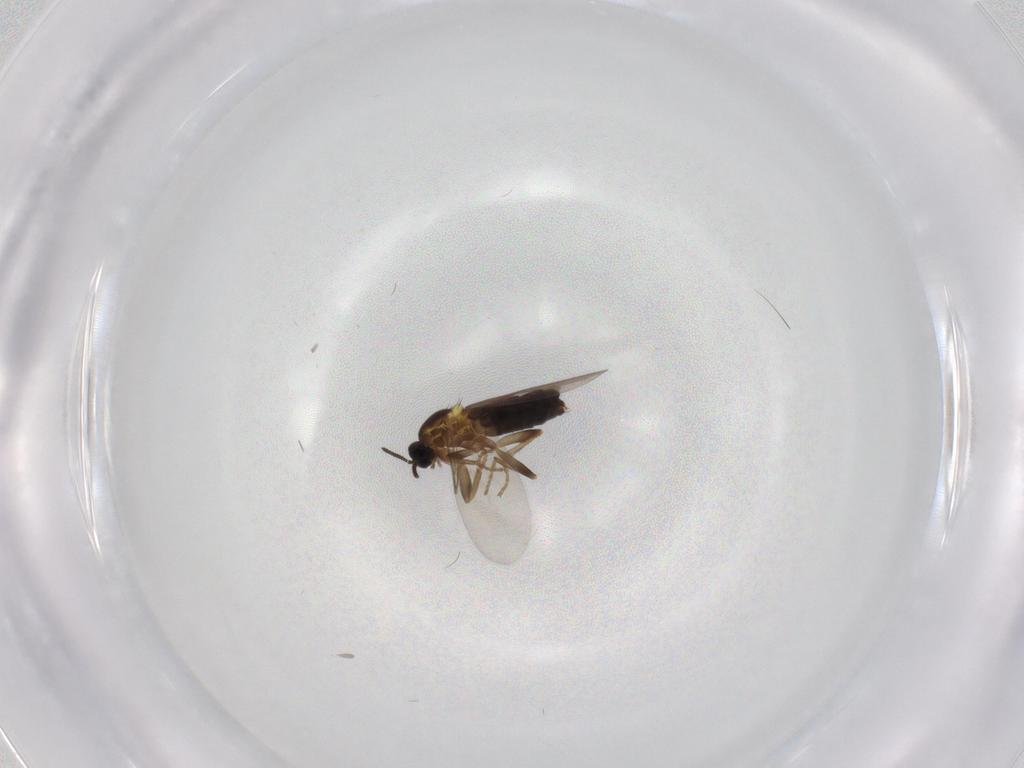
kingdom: Animalia
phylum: Arthropoda
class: Insecta
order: Diptera
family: Scatopsidae
